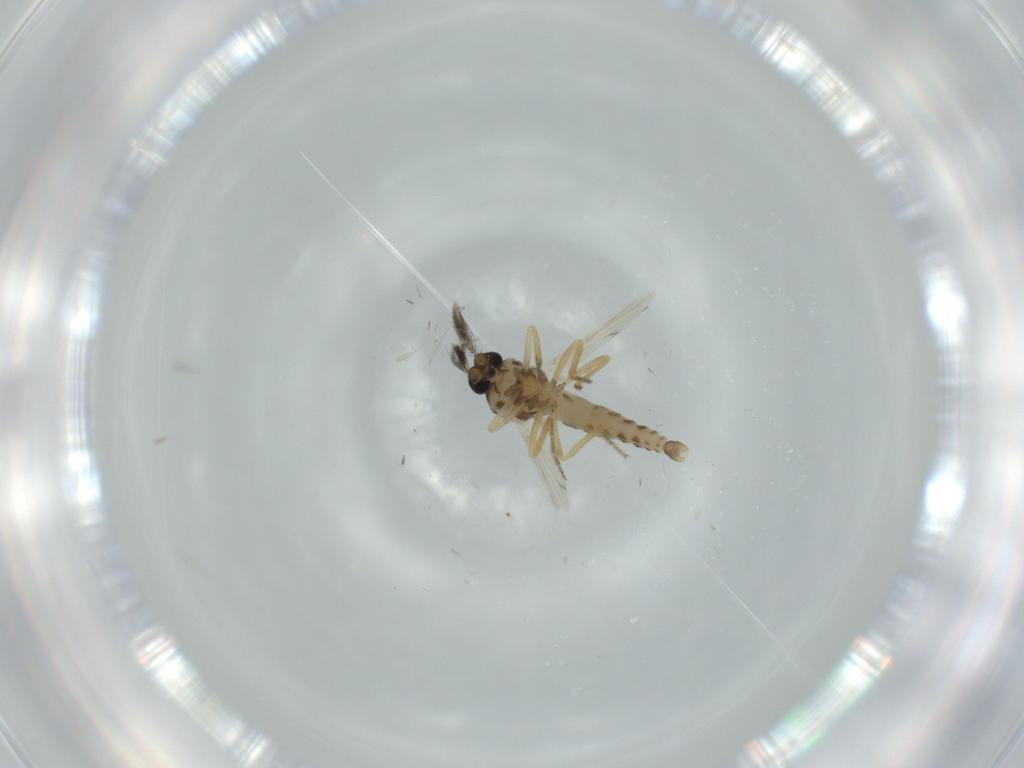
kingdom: Animalia
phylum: Arthropoda
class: Insecta
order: Diptera
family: Ceratopogonidae
